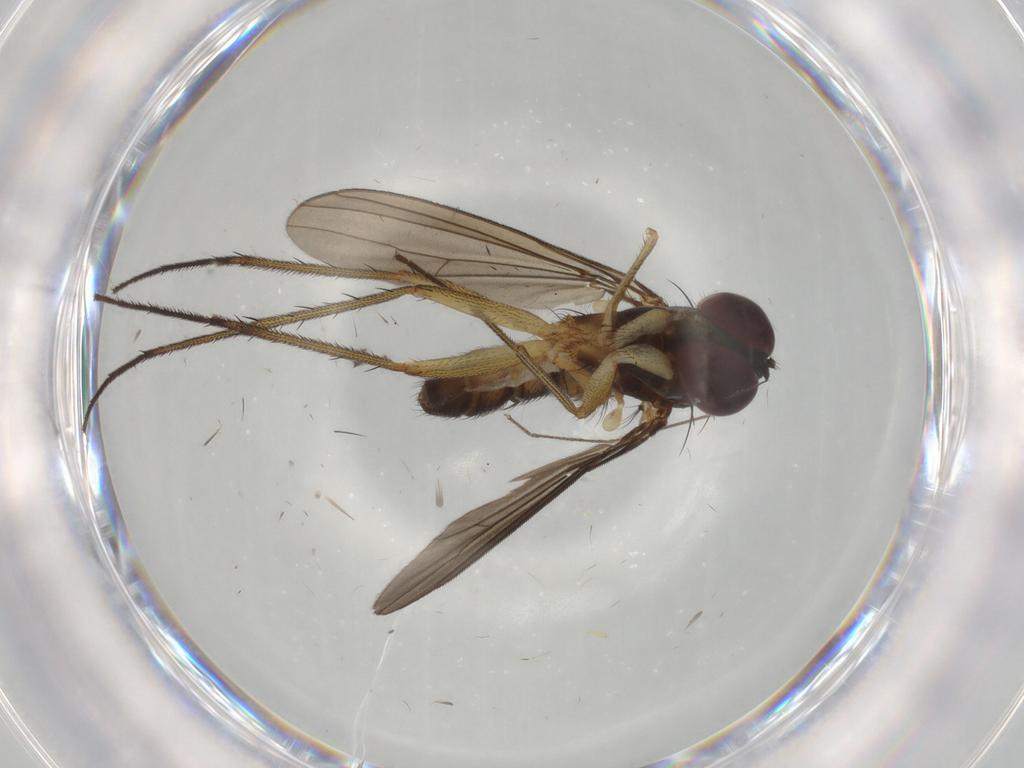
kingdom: Animalia
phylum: Arthropoda
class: Insecta
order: Diptera
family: Dolichopodidae
